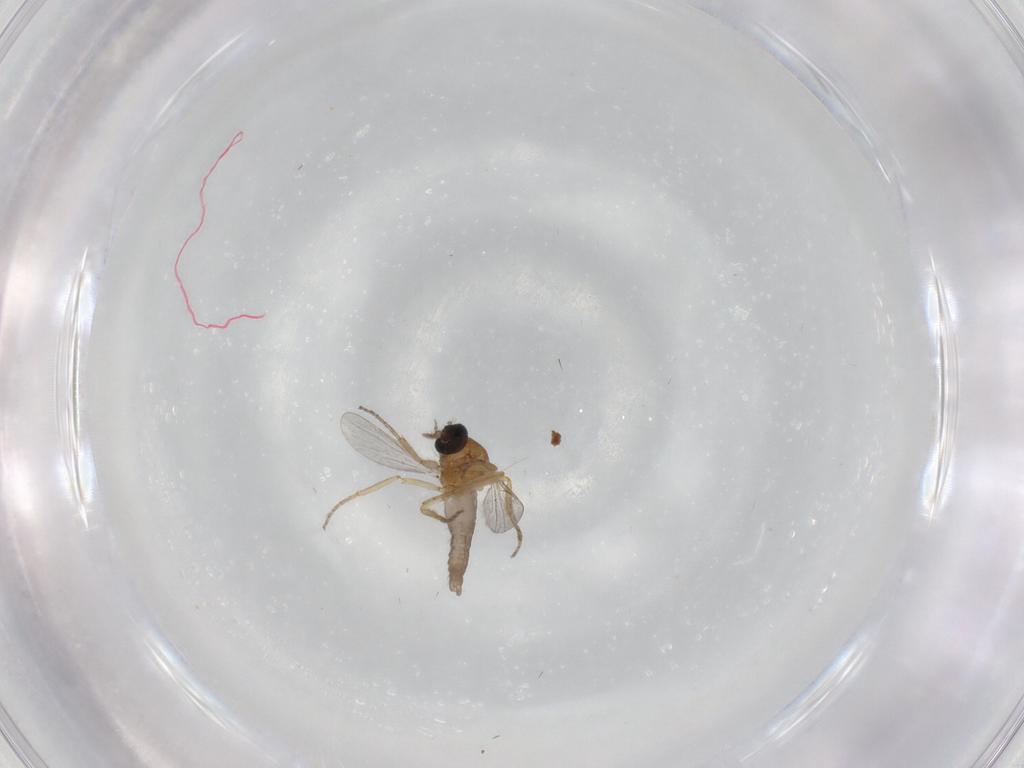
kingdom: Animalia
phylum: Arthropoda
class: Insecta
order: Diptera
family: Ceratopogonidae
